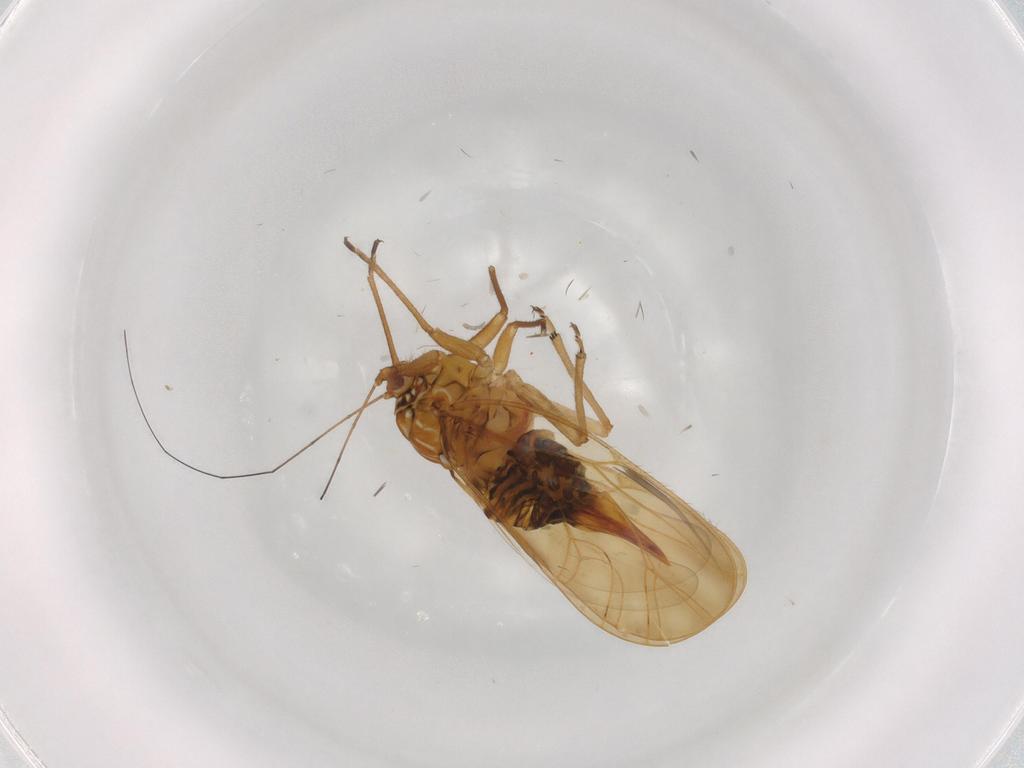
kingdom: Animalia
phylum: Arthropoda
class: Insecta
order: Hemiptera
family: Psyllidae
